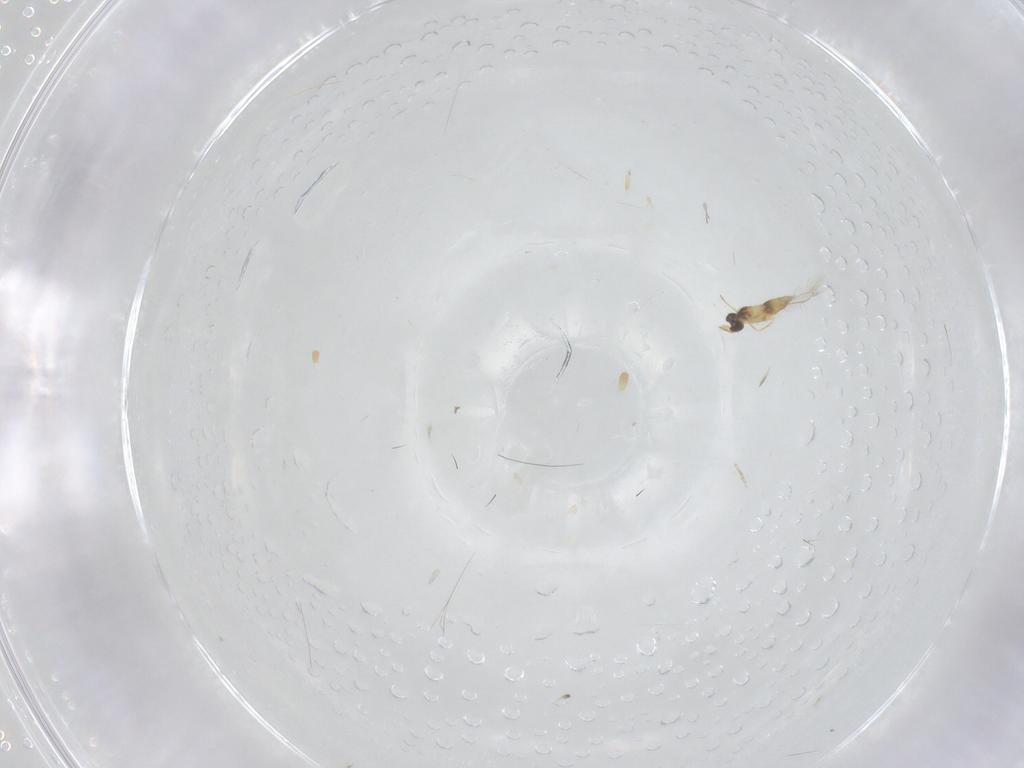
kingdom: Animalia
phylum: Arthropoda
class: Insecta
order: Hymenoptera
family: Mymaridae
